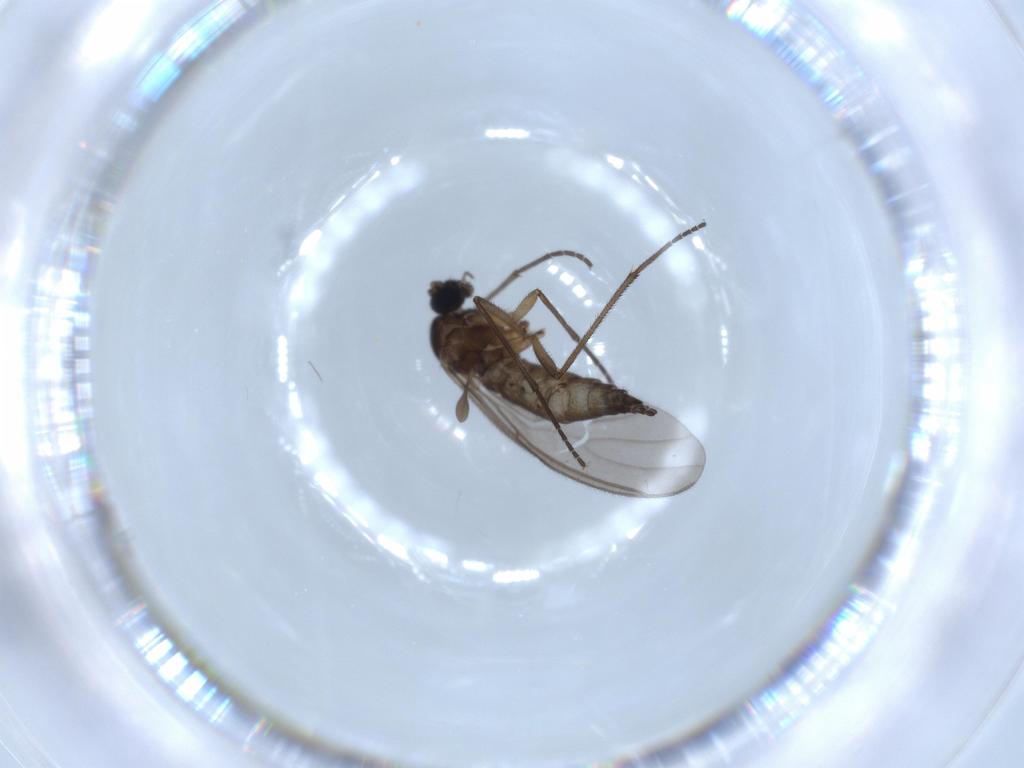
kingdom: Animalia
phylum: Arthropoda
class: Insecta
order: Diptera
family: Sciaridae
